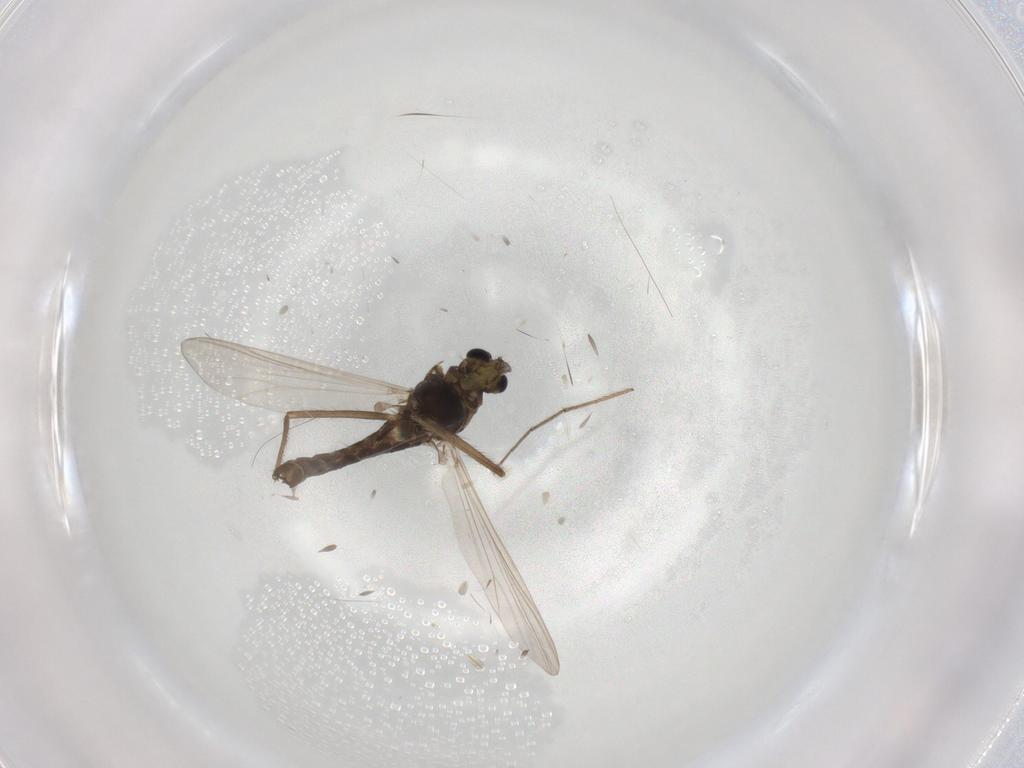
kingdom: Animalia
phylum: Arthropoda
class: Insecta
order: Diptera
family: Chironomidae
